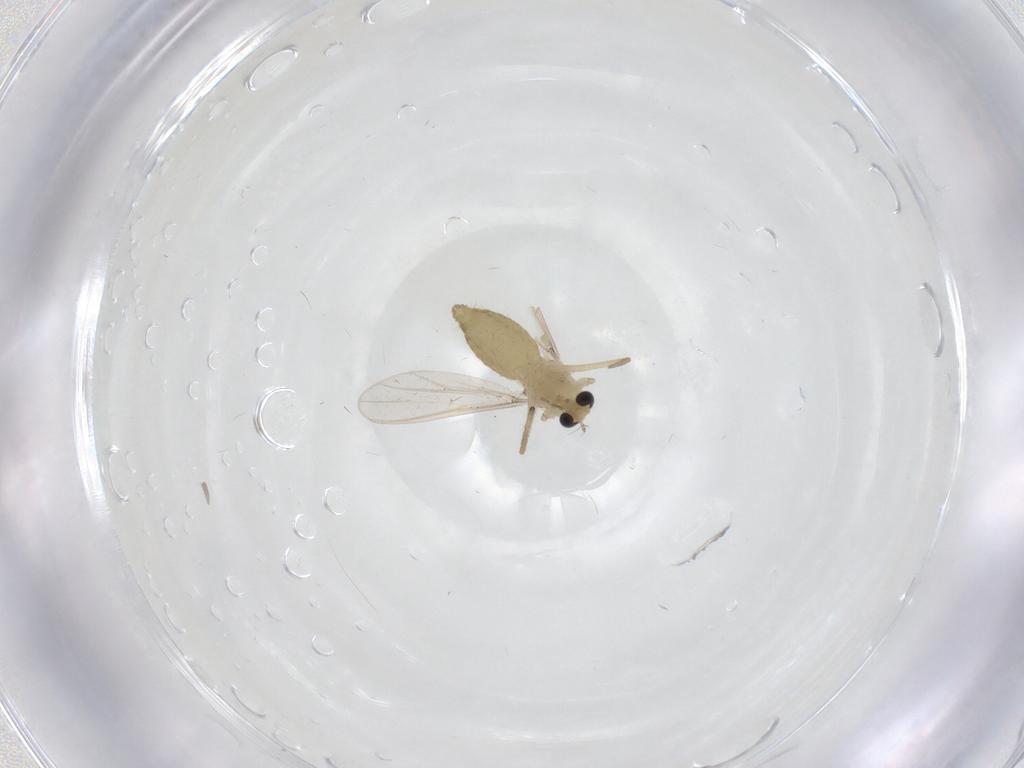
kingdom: Animalia
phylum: Arthropoda
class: Insecta
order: Diptera
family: Chironomidae
